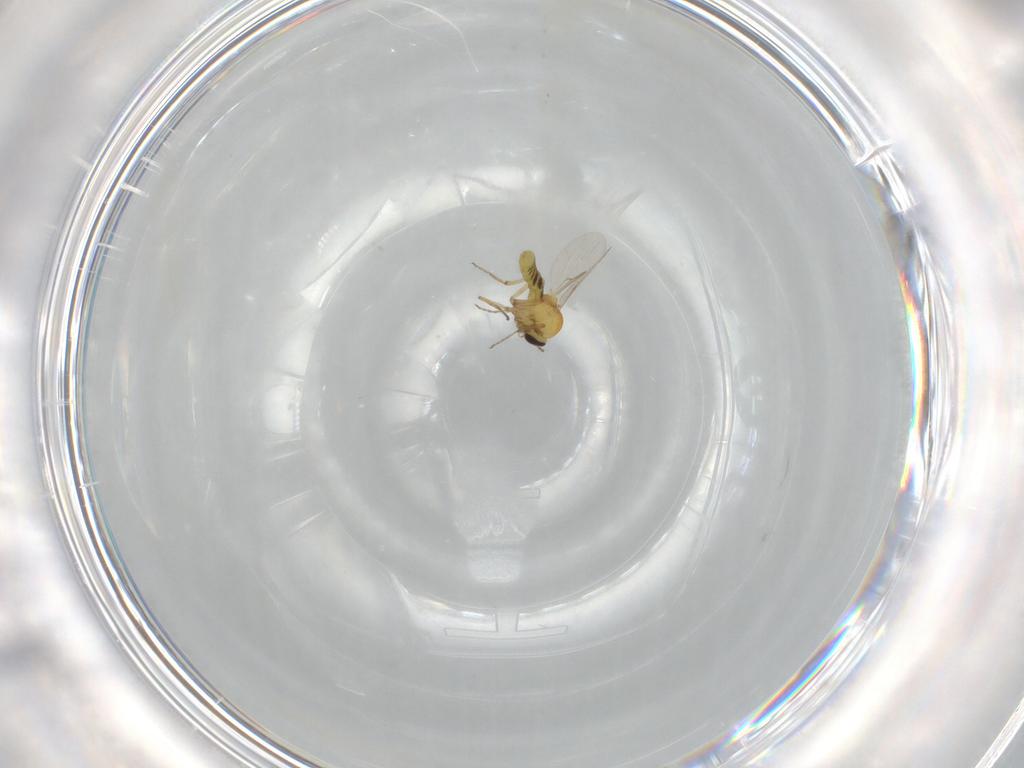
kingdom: Animalia
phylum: Arthropoda
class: Insecta
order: Diptera
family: Ceratopogonidae
